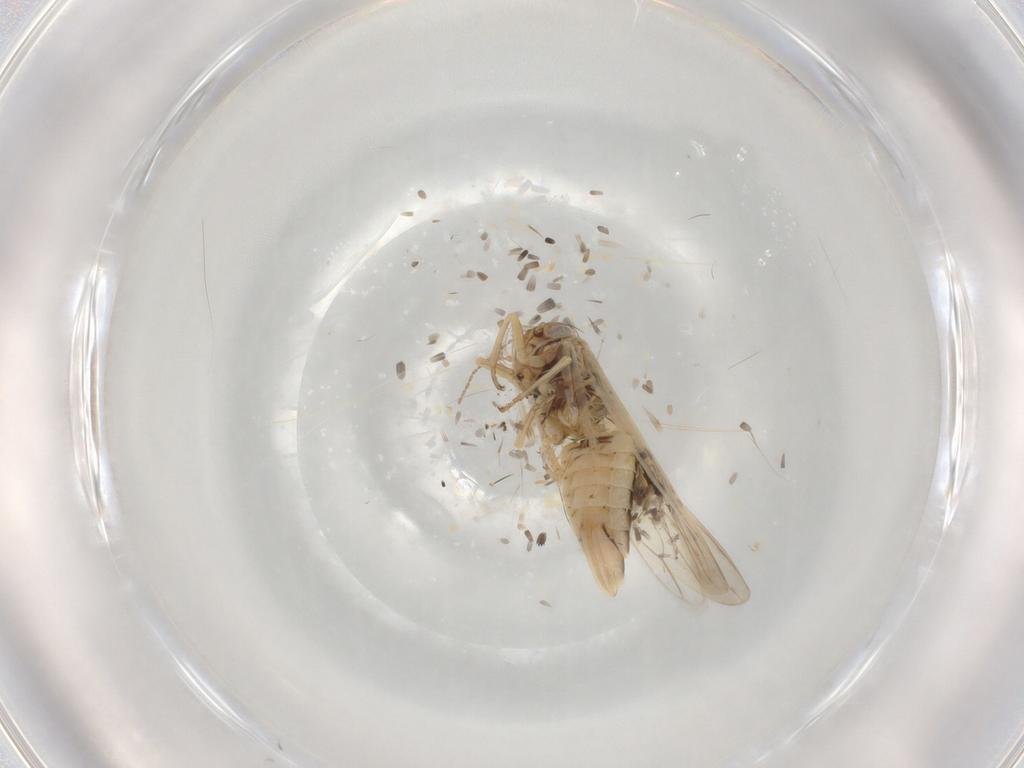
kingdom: Animalia
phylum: Arthropoda
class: Insecta
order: Hemiptera
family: Cicadellidae
